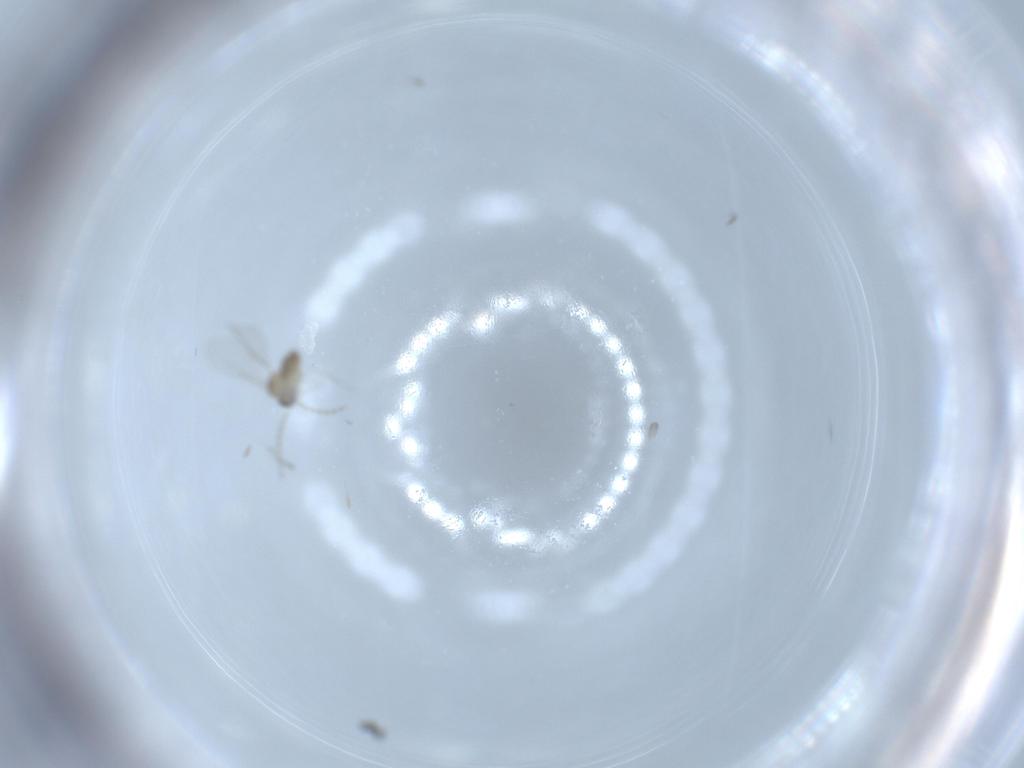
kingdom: Animalia
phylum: Arthropoda
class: Insecta
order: Diptera
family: Cecidomyiidae
